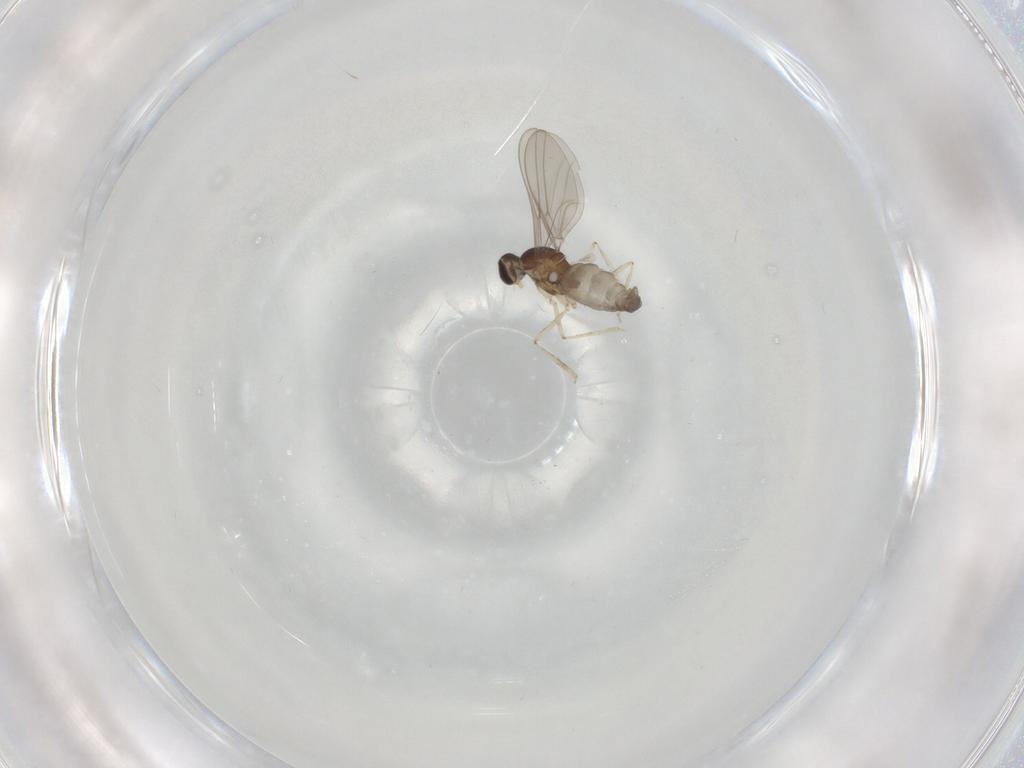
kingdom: Animalia
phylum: Arthropoda
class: Insecta
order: Diptera
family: Cecidomyiidae
